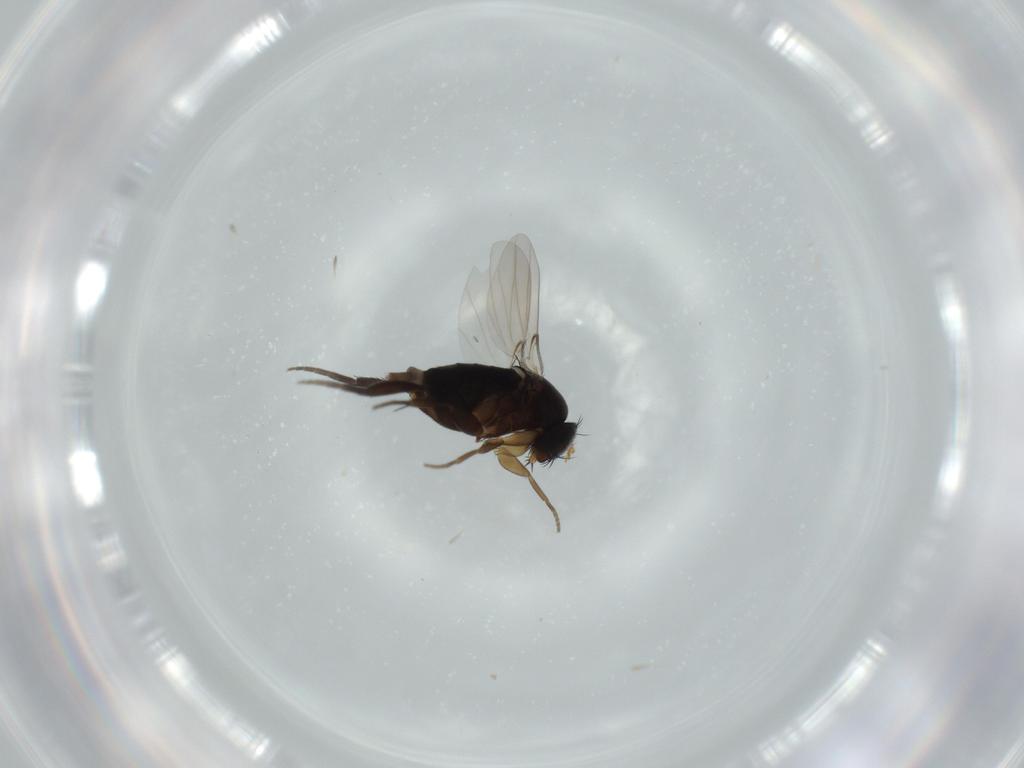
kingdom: Animalia
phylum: Arthropoda
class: Insecta
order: Diptera
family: Phoridae
